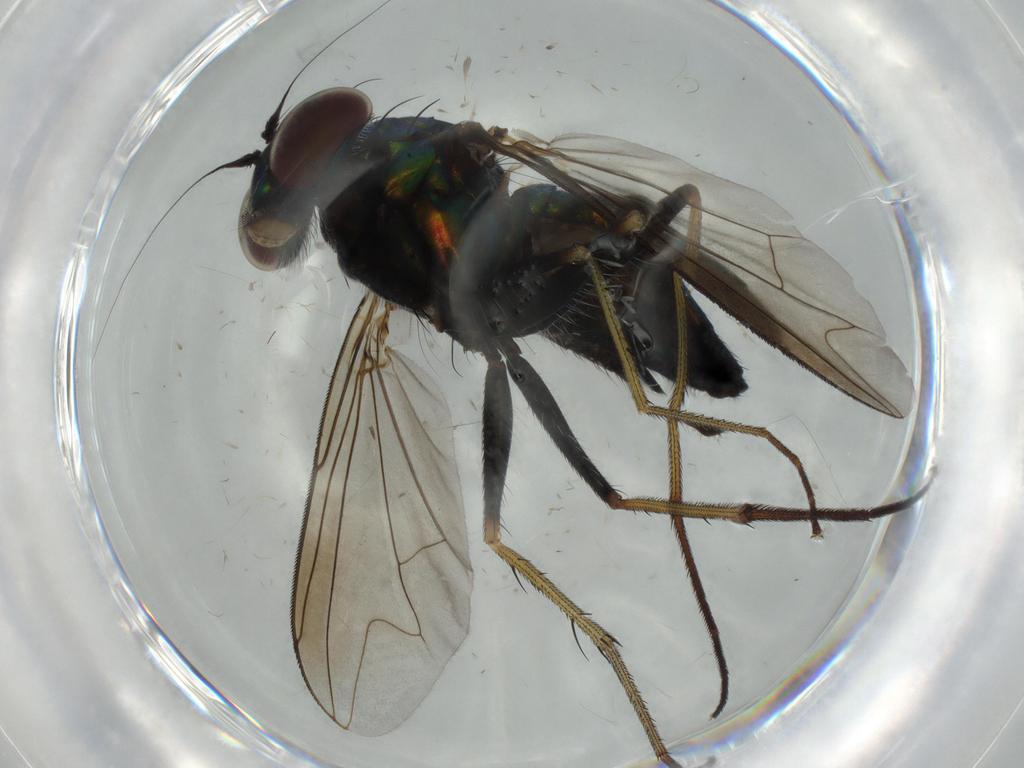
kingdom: Animalia
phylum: Arthropoda
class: Insecta
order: Diptera
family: Dolichopodidae
